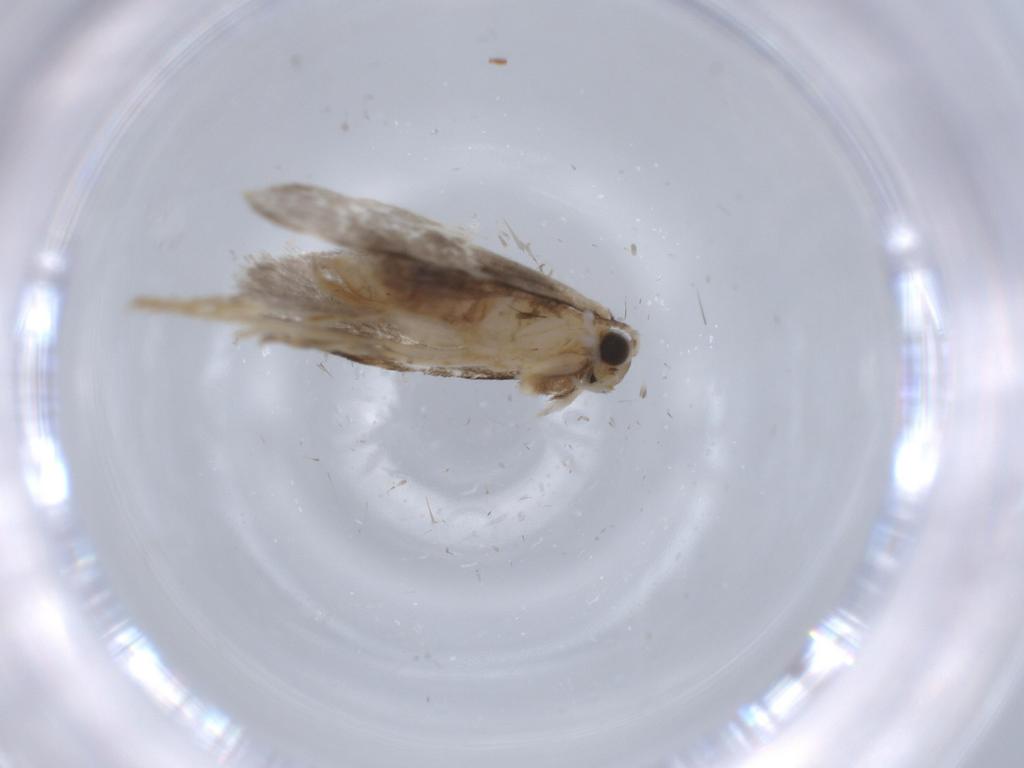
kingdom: Animalia
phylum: Arthropoda
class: Insecta
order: Lepidoptera
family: Tineidae
